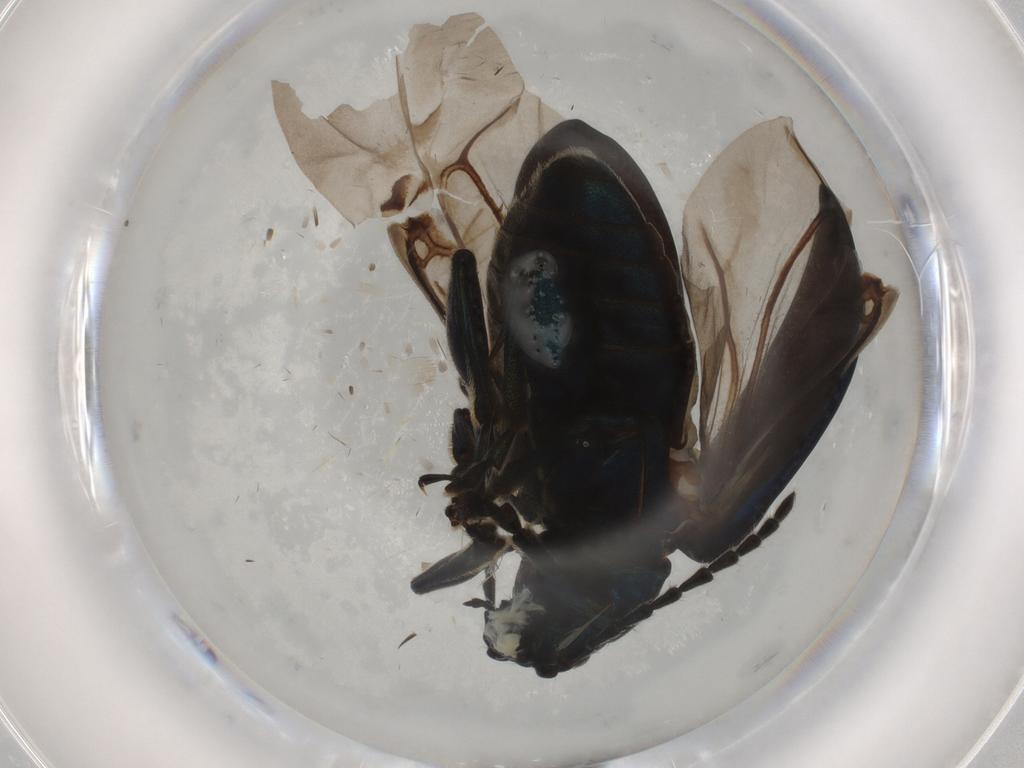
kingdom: Animalia
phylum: Arthropoda
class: Insecta
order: Coleoptera
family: Chrysomelidae
